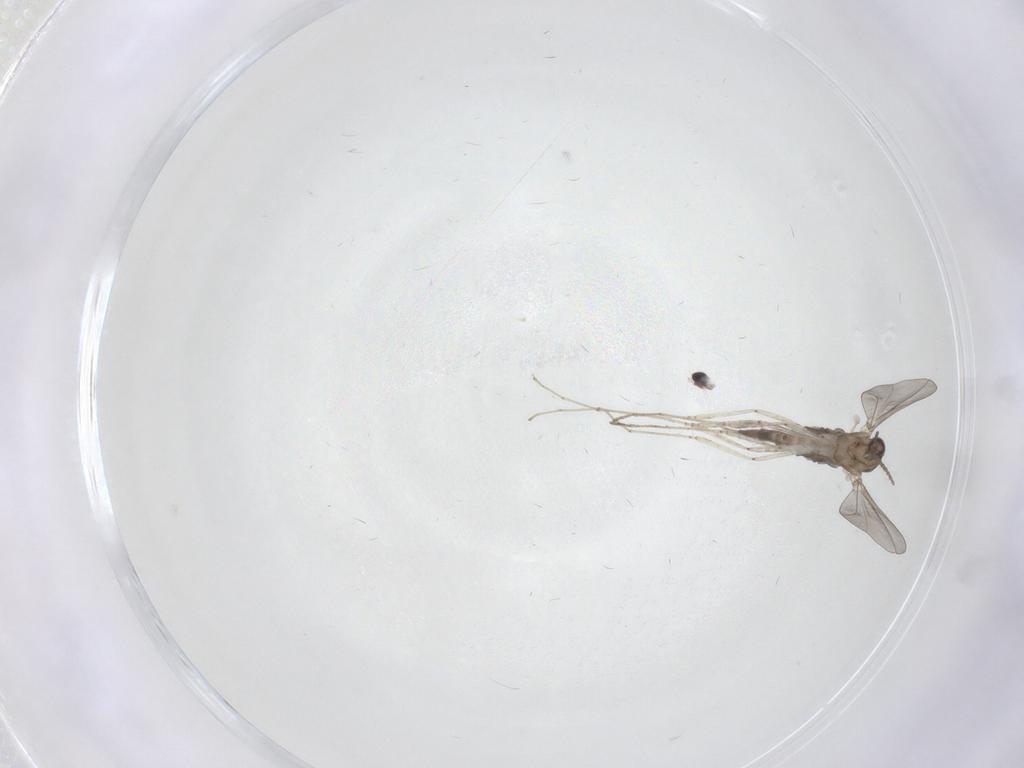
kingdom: Animalia
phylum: Arthropoda
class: Insecta
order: Diptera
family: Cecidomyiidae
